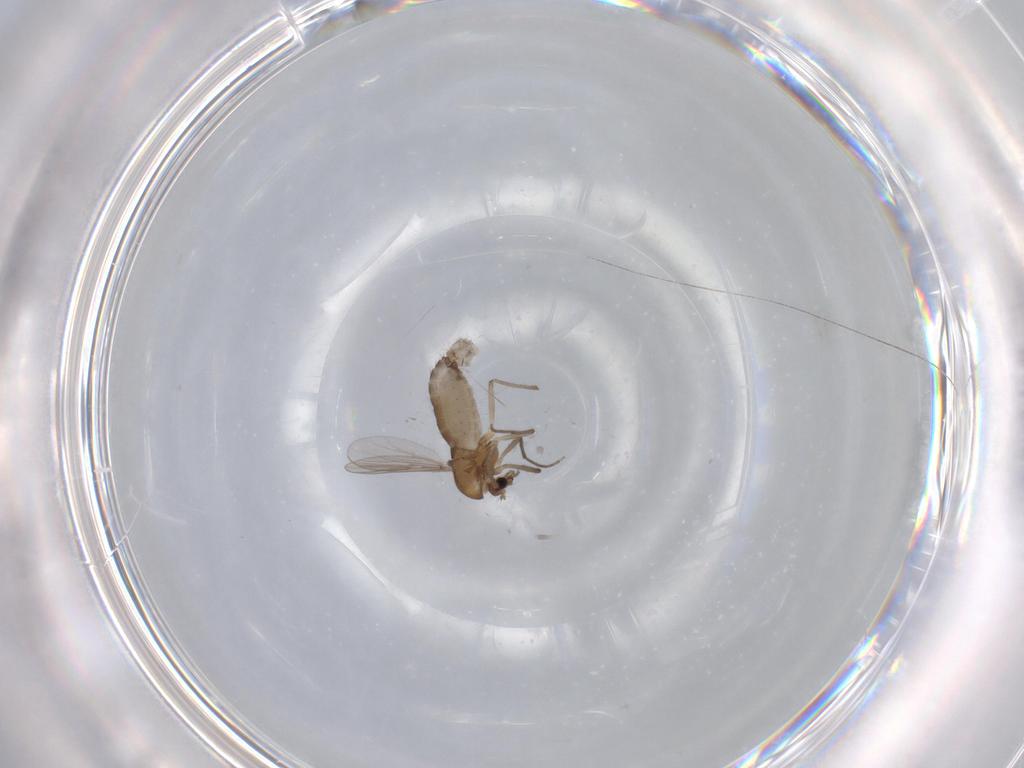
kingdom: Animalia
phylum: Arthropoda
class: Insecta
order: Diptera
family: Chironomidae
